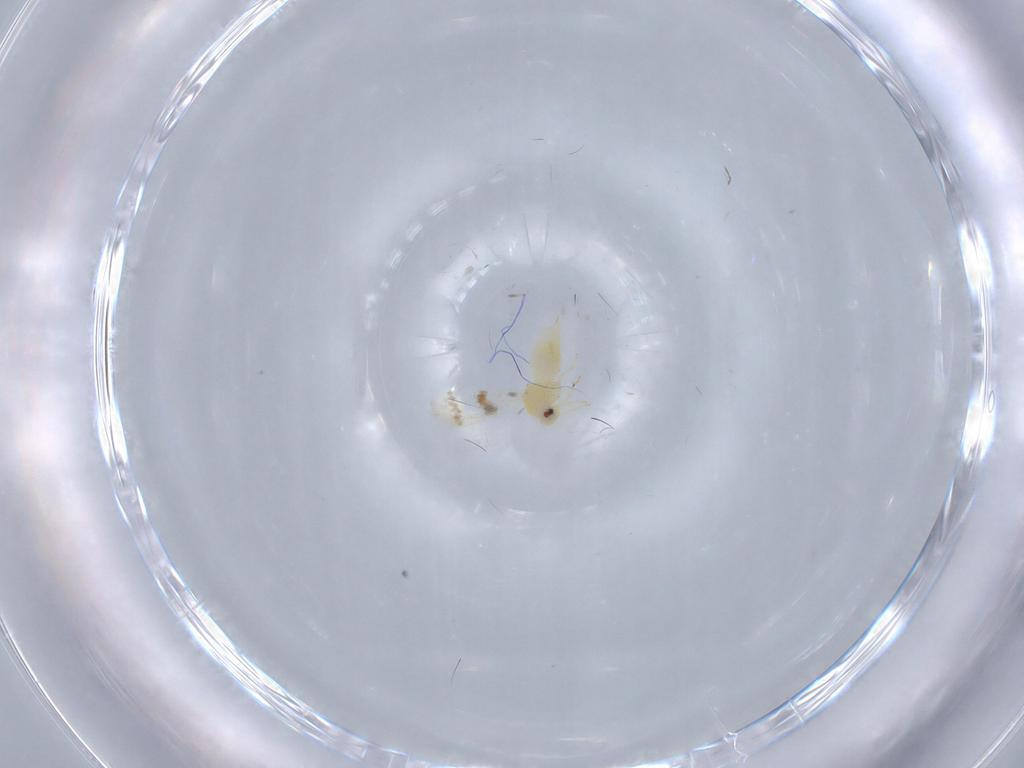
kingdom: Animalia
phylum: Arthropoda
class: Insecta
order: Hemiptera
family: Aleyrodidae
